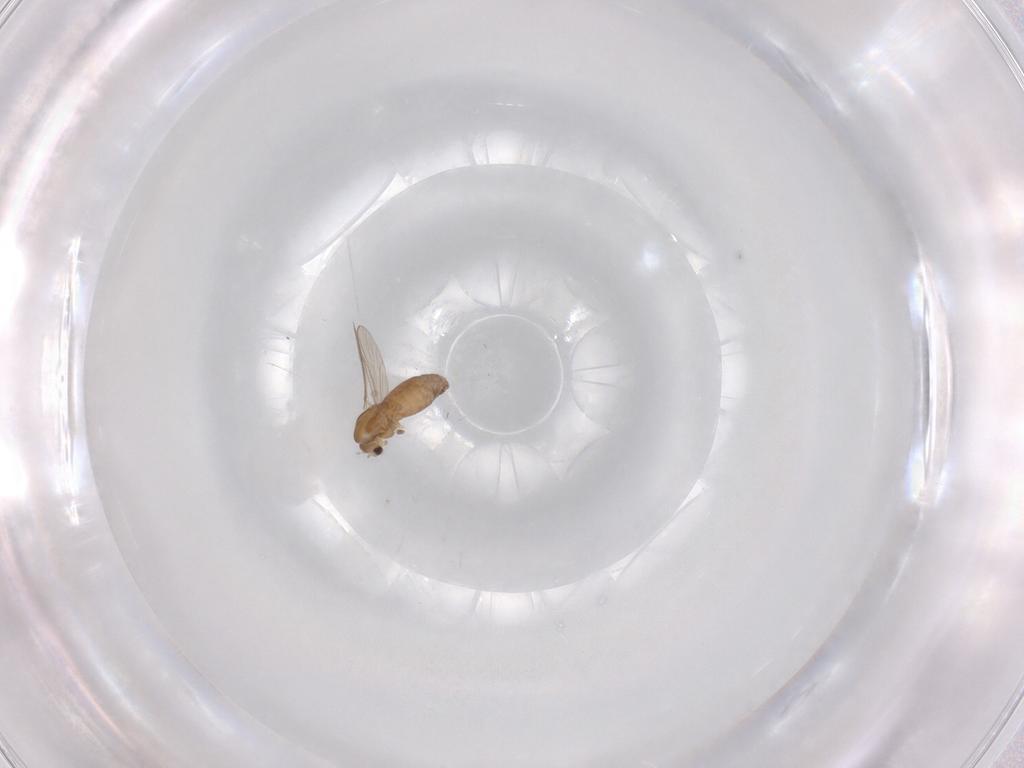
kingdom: Animalia
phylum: Arthropoda
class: Insecta
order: Diptera
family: Chironomidae
